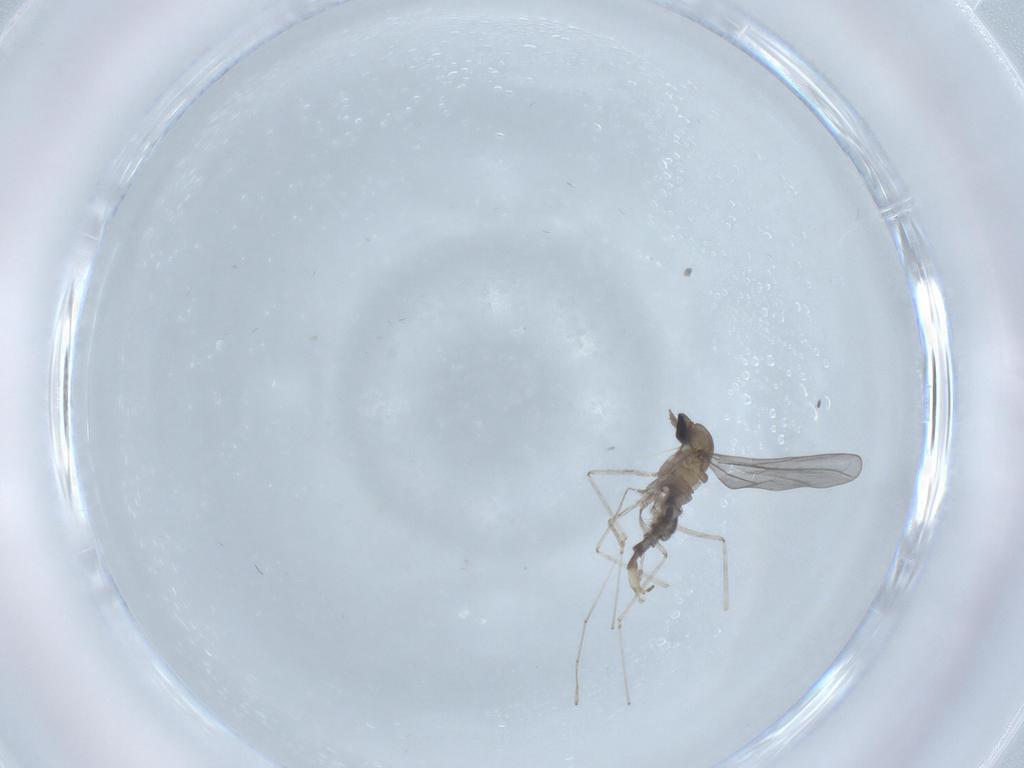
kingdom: Animalia
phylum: Arthropoda
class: Insecta
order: Diptera
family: Cecidomyiidae
